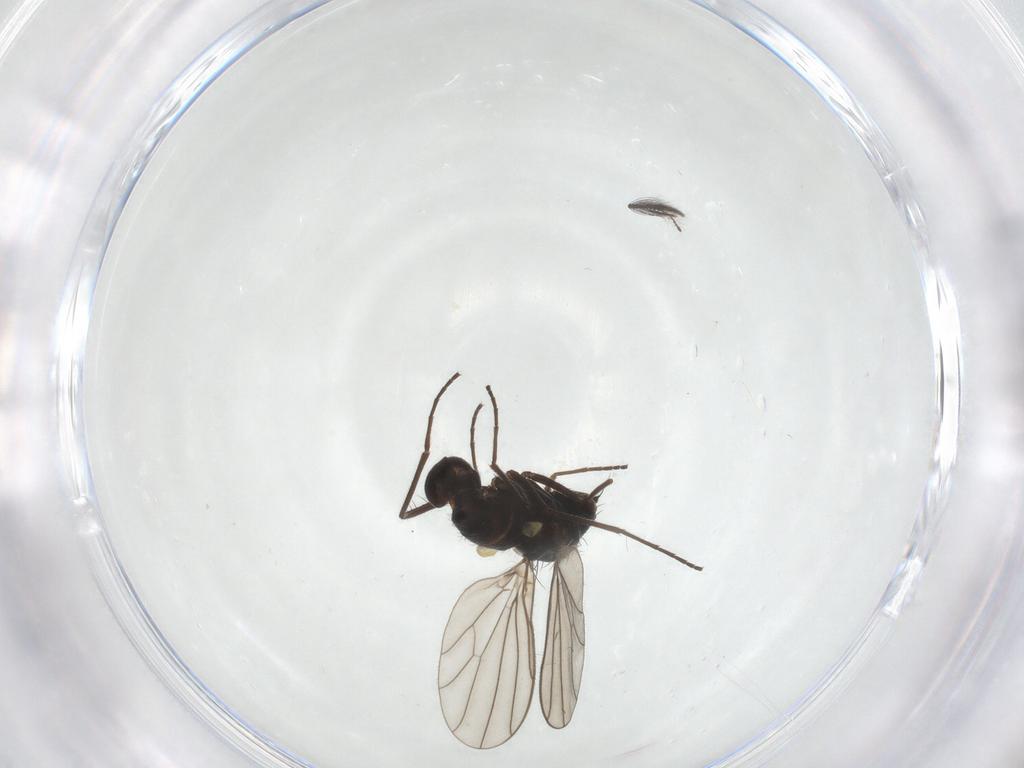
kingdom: Animalia
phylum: Arthropoda
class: Insecta
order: Diptera
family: Ceratopogonidae
